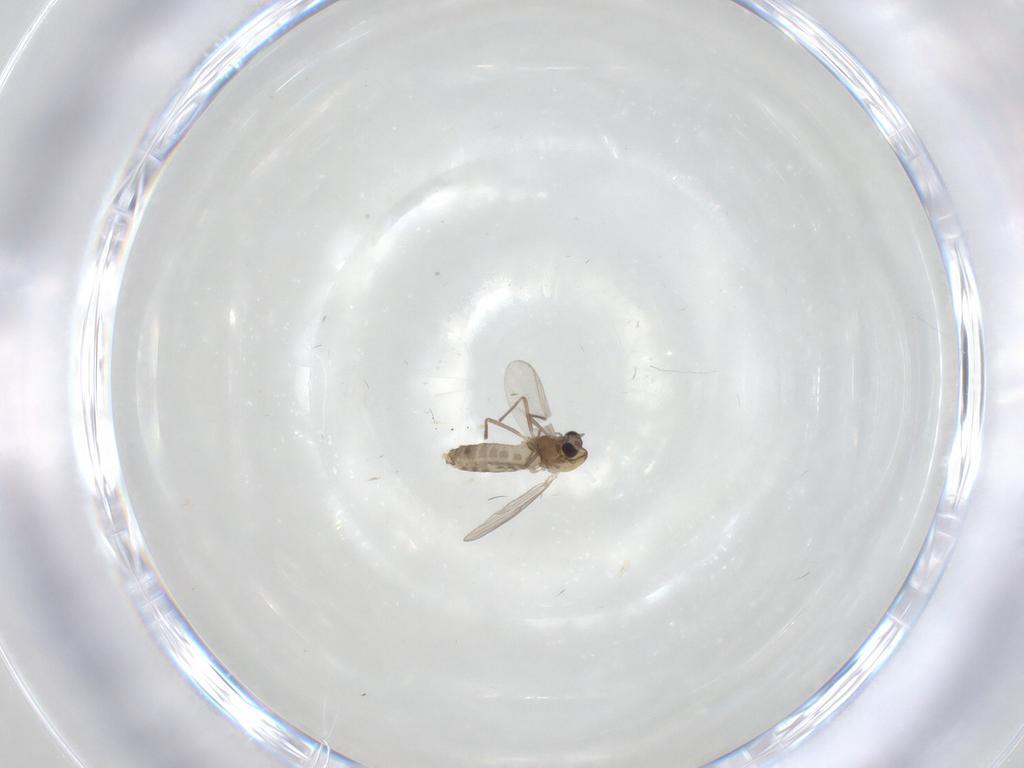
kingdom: Animalia
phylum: Arthropoda
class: Insecta
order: Diptera
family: Chironomidae
